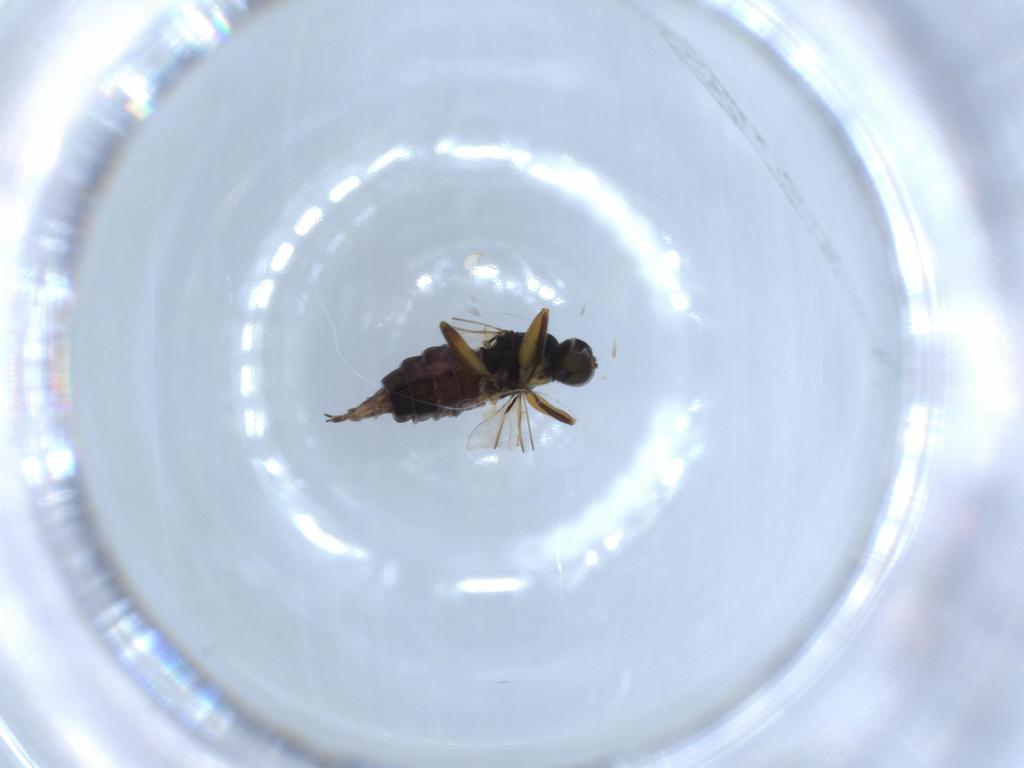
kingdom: Animalia
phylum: Arthropoda
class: Insecta
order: Diptera
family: Hybotidae
